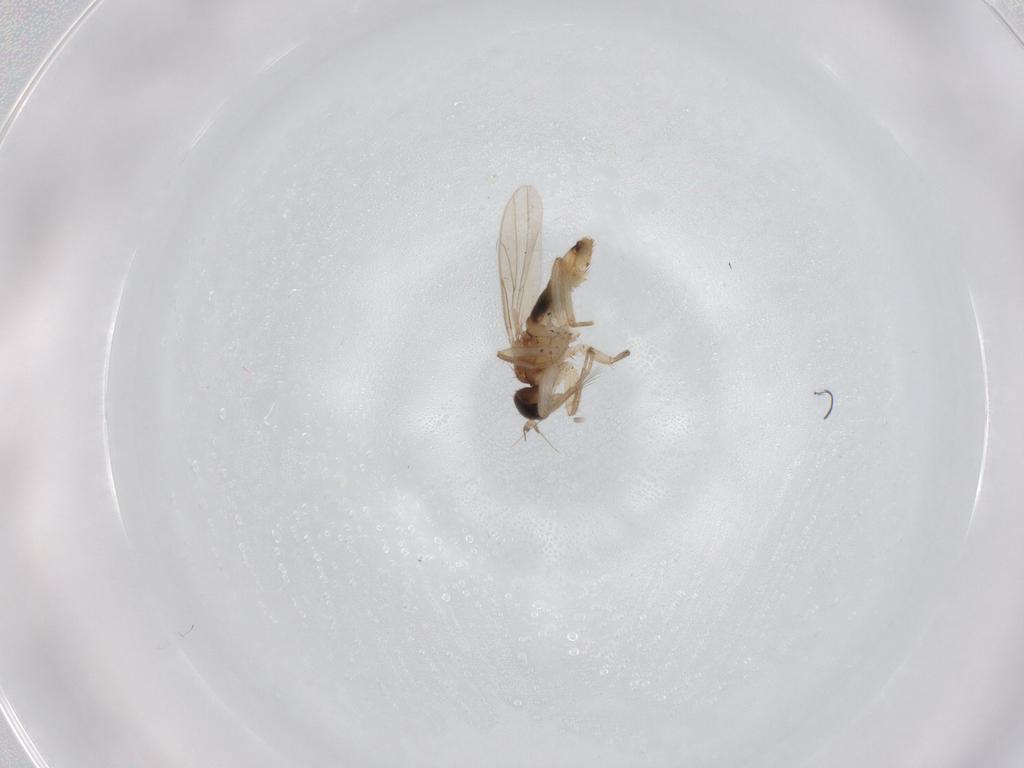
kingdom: Animalia
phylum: Arthropoda
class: Insecta
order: Diptera
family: Hybotidae
